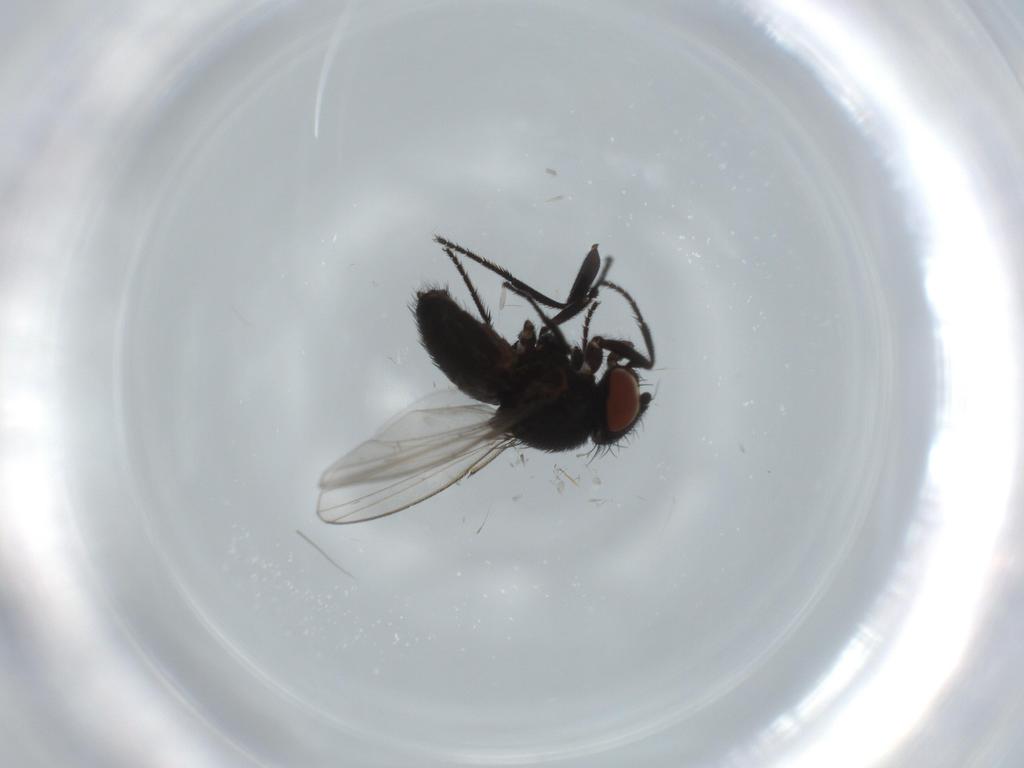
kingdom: Animalia
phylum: Arthropoda
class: Insecta
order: Diptera
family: Milichiidae
